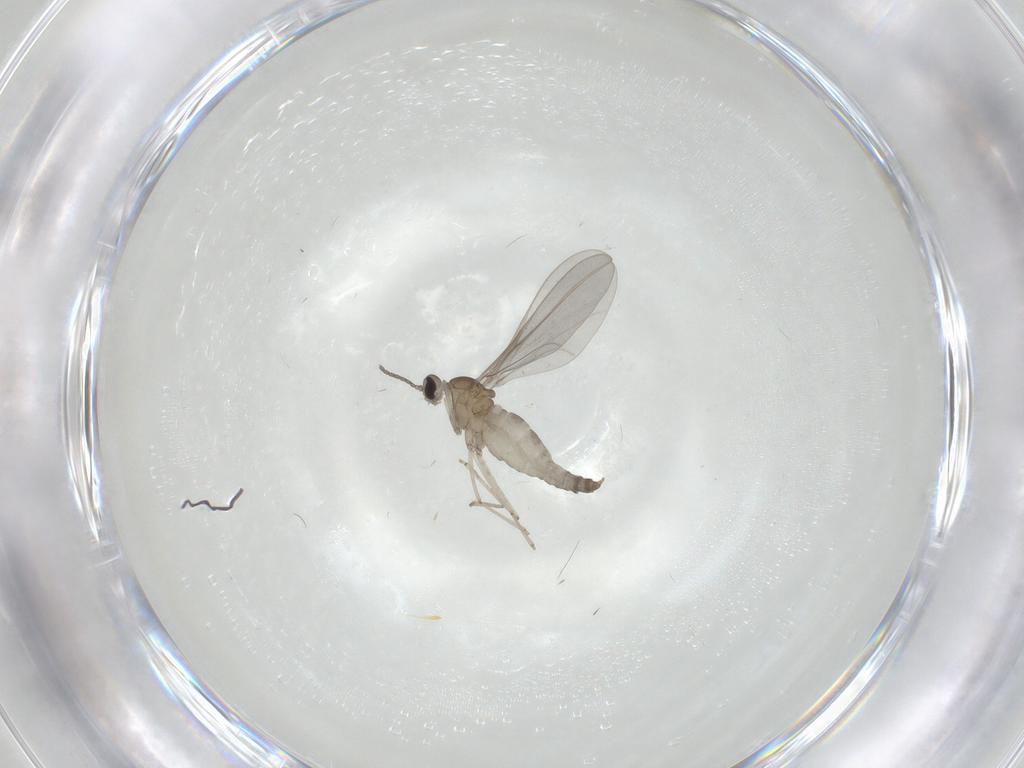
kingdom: Animalia
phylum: Arthropoda
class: Insecta
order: Diptera
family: Cecidomyiidae
